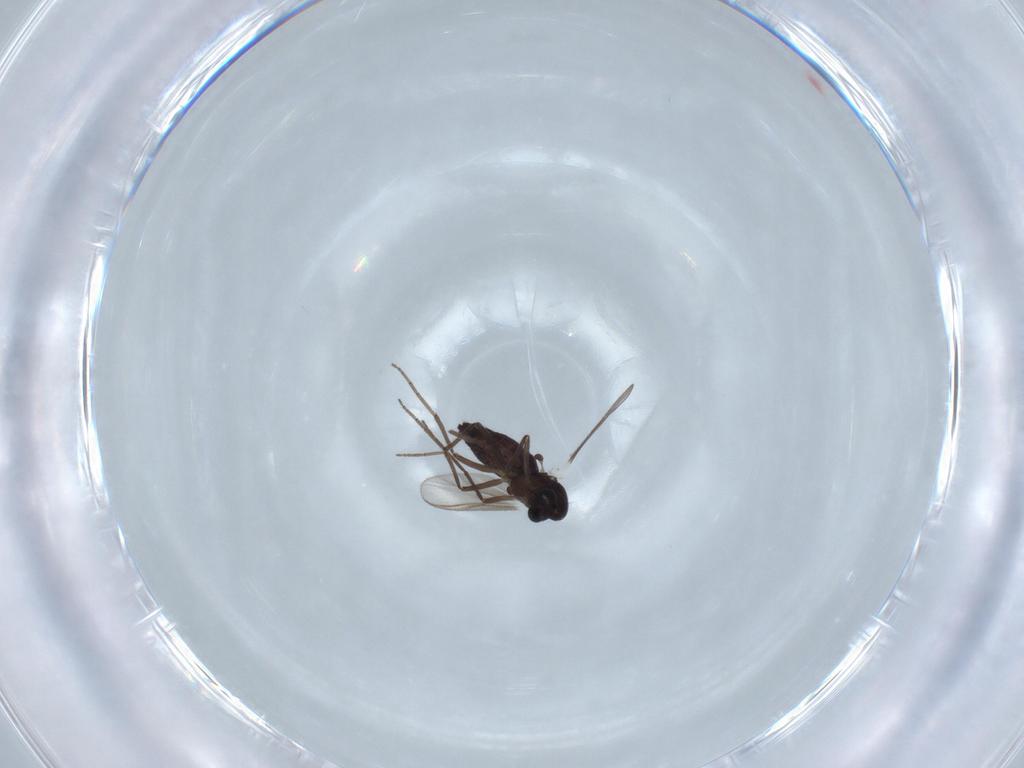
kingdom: Animalia
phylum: Arthropoda
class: Insecta
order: Diptera
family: Chironomidae
